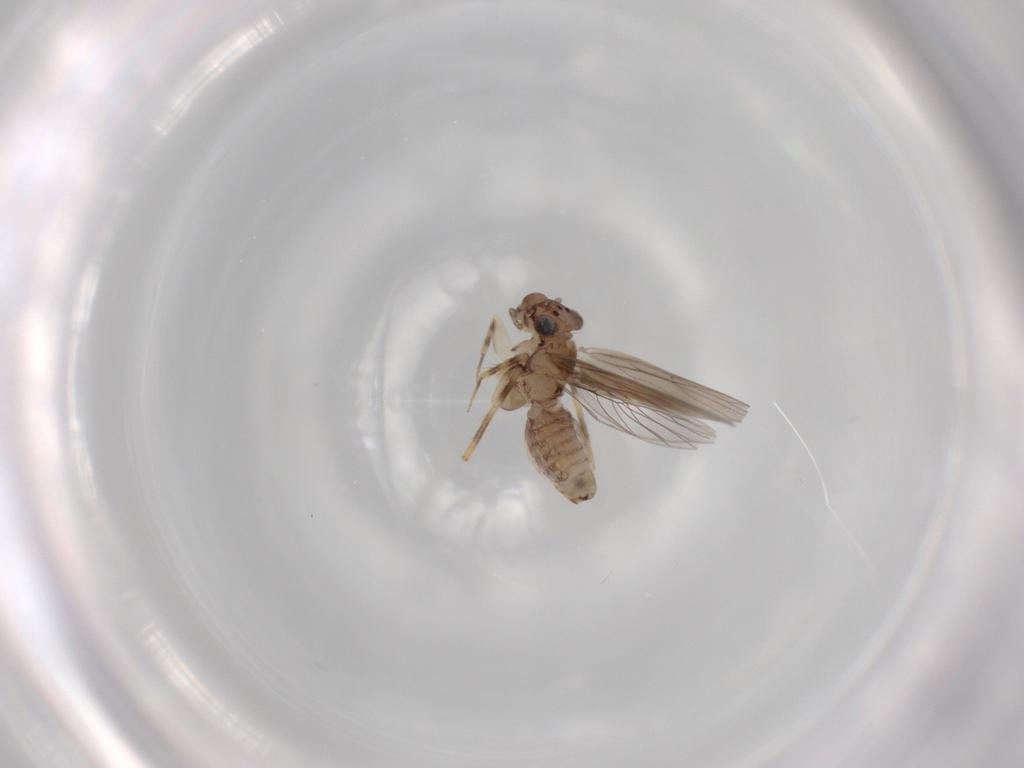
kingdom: Animalia
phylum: Arthropoda
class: Insecta
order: Psocodea
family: Lepidopsocidae
